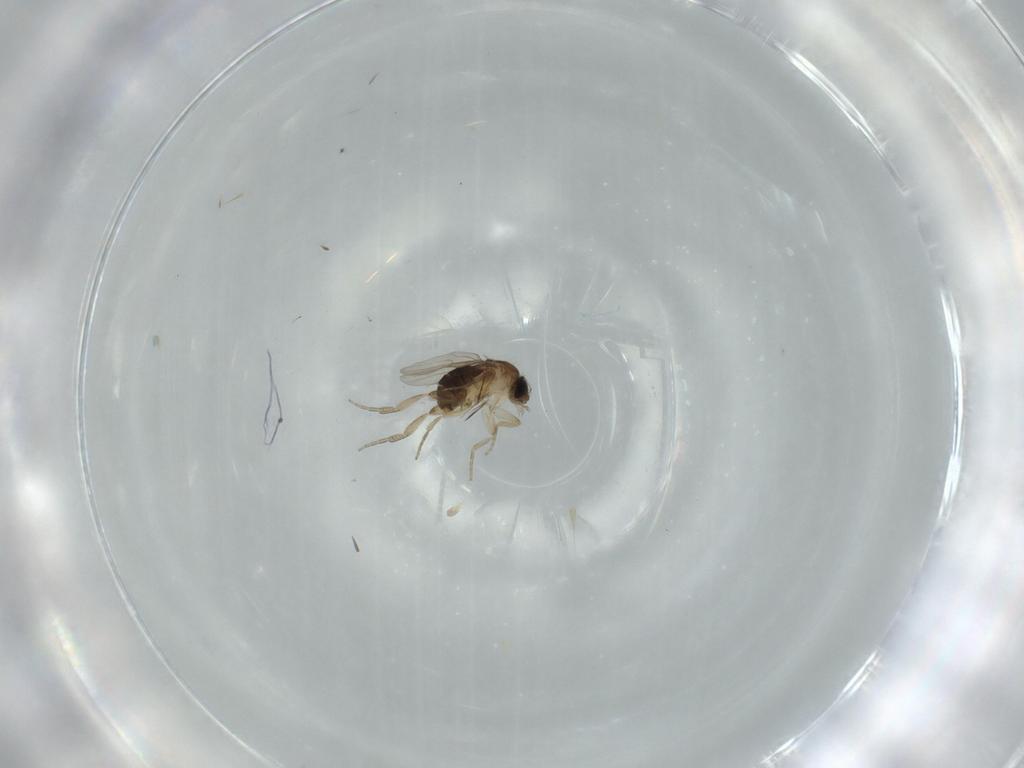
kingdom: Animalia
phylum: Arthropoda
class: Insecta
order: Diptera
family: Phoridae
